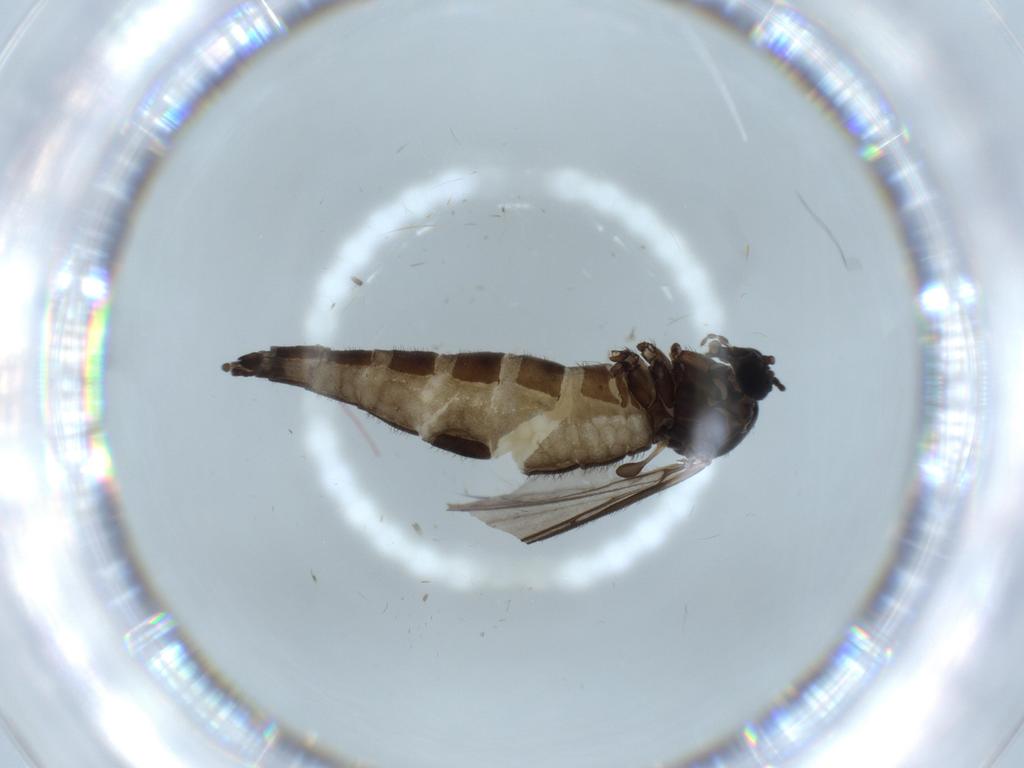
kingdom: Animalia
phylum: Arthropoda
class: Insecta
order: Diptera
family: Sciaridae
